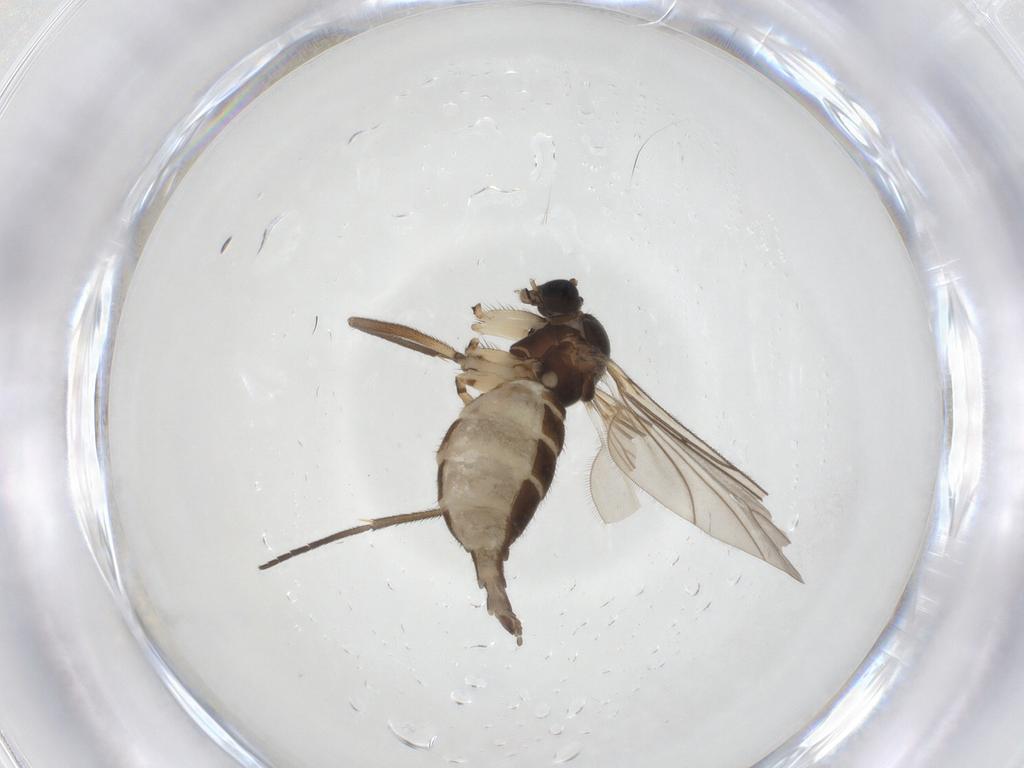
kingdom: Animalia
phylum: Arthropoda
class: Insecta
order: Diptera
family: Sciaridae
